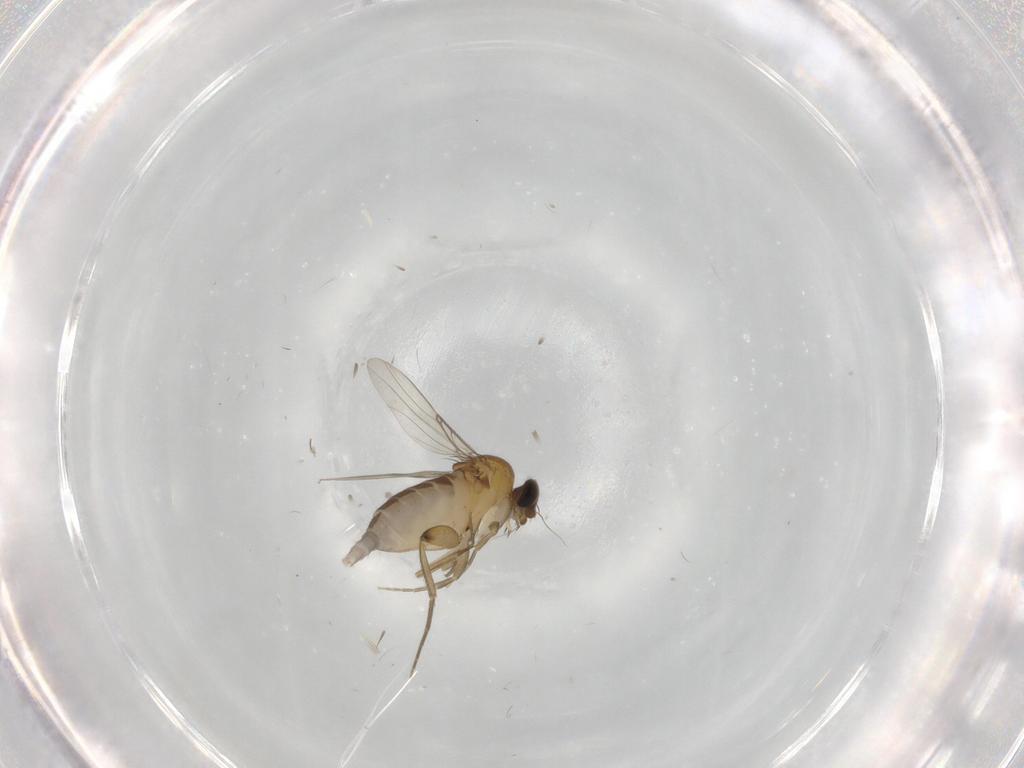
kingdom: Animalia
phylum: Arthropoda
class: Insecta
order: Diptera
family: Phoridae
